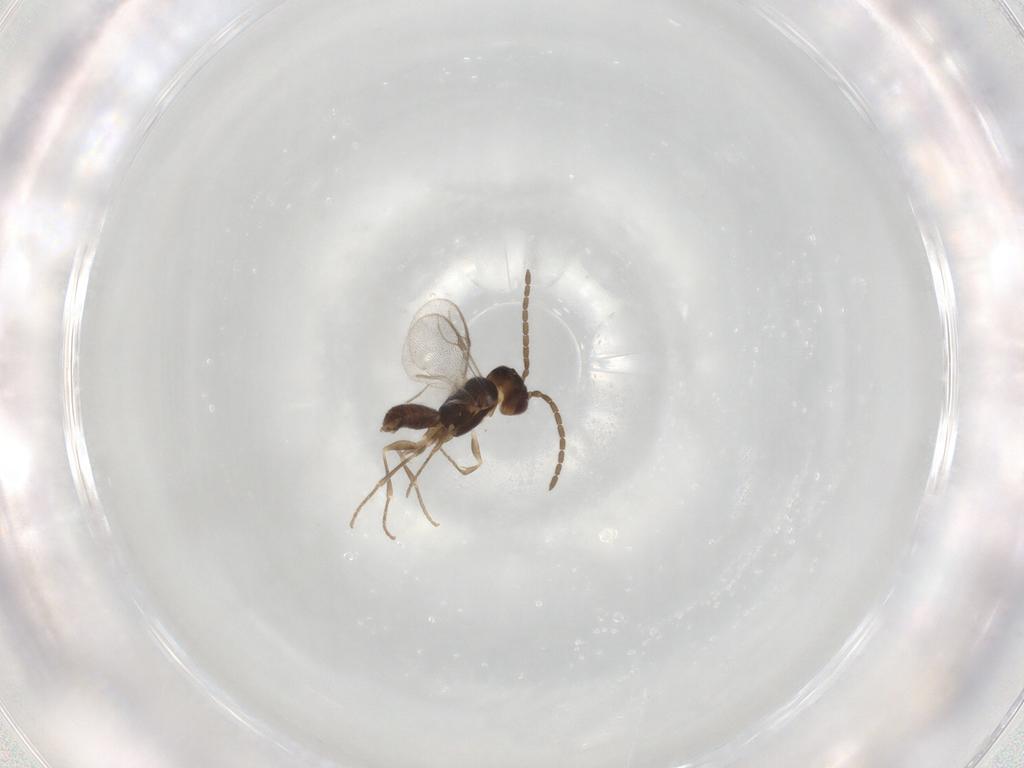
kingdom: Animalia
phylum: Arthropoda
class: Insecta
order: Hymenoptera
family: Dryinidae
